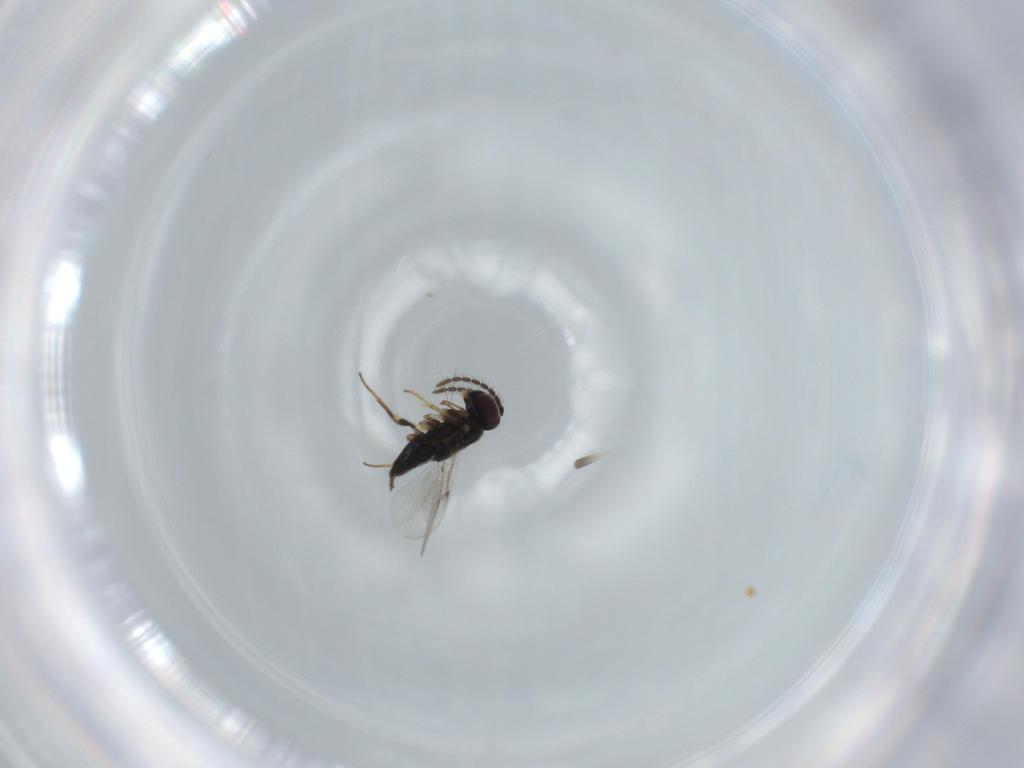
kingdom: Animalia
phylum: Arthropoda
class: Insecta
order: Hymenoptera
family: Encyrtidae
